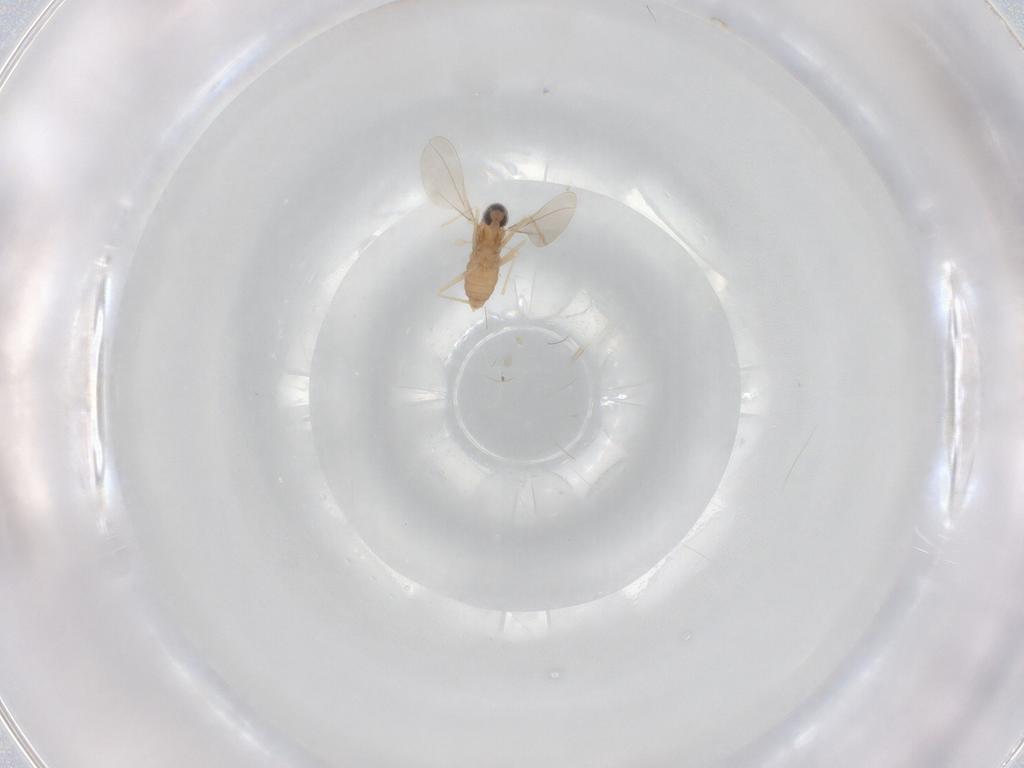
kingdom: Animalia
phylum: Arthropoda
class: Insecta
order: Diptera
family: Cecidomyiidae
